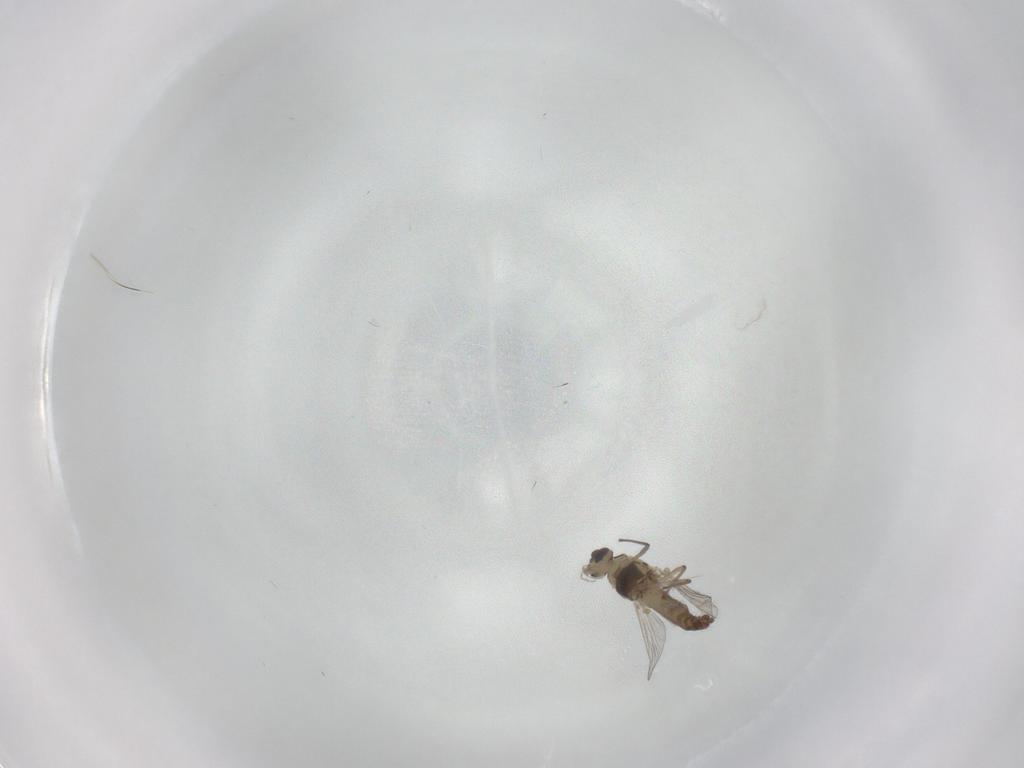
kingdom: Animalia
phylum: Arthropoda
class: Insecta
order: Diptera
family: Chironomidae
